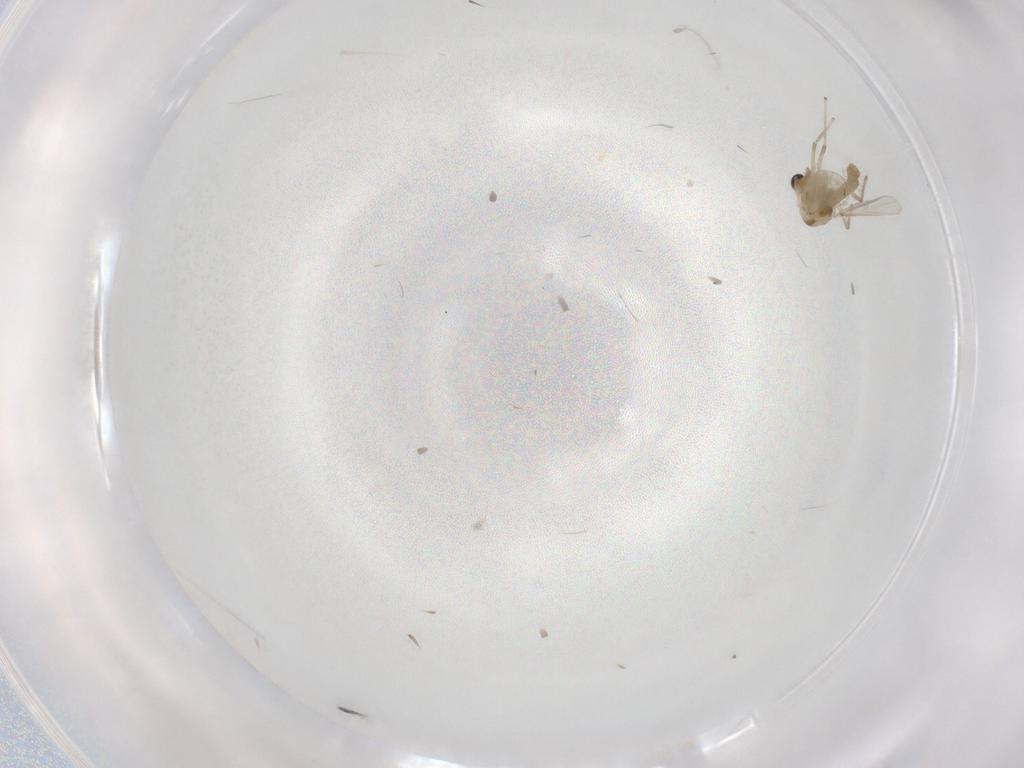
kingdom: Animalia
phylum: Arthropoda
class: Insecta
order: Diptera
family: Chironomidae
